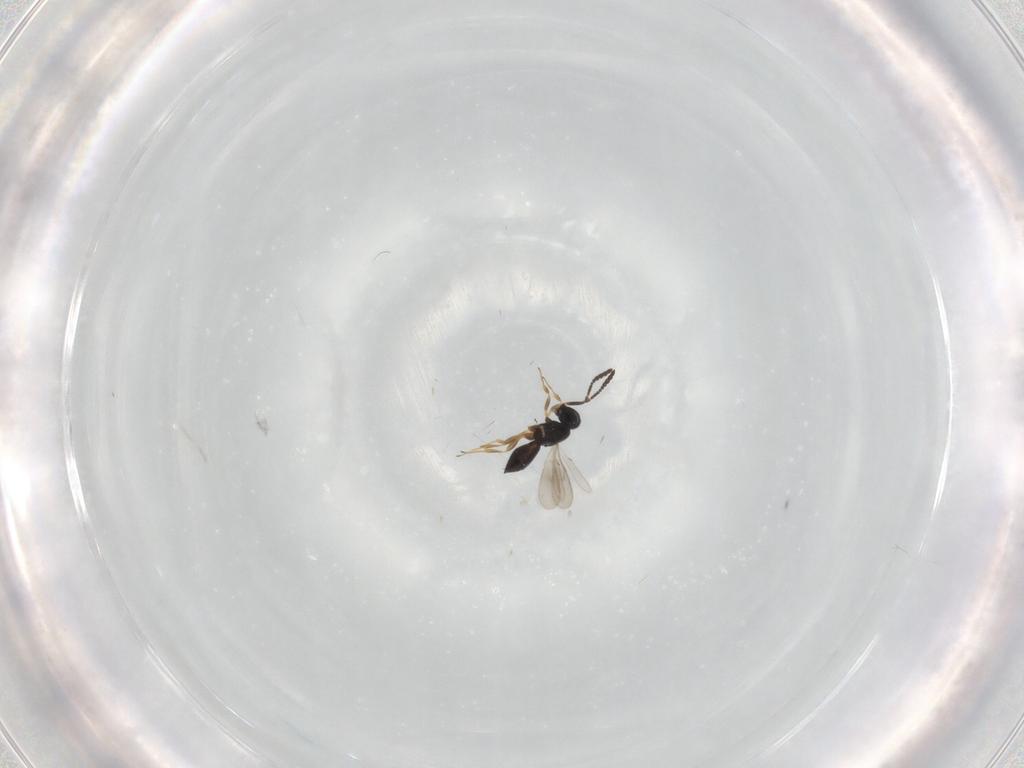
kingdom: Animalia
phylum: Arthropoda
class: Insecta
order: Hymenoptera
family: Scelionidae
